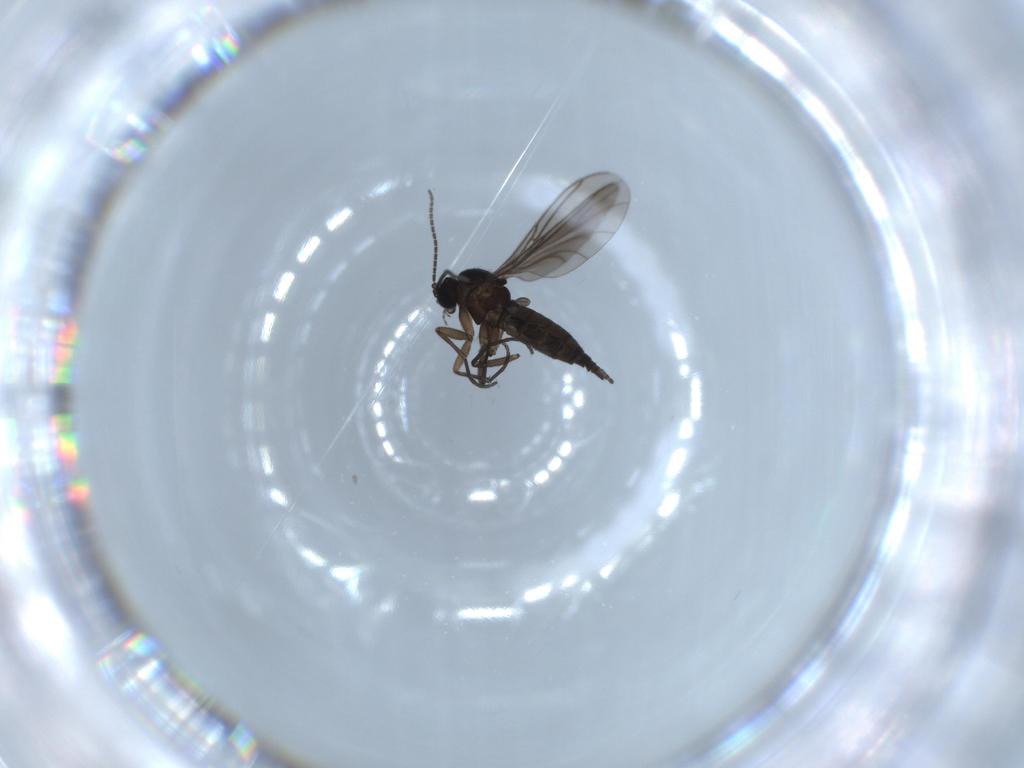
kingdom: Animalia
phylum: Arthropoda
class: Insecta
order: Diptera
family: Sciaridae
